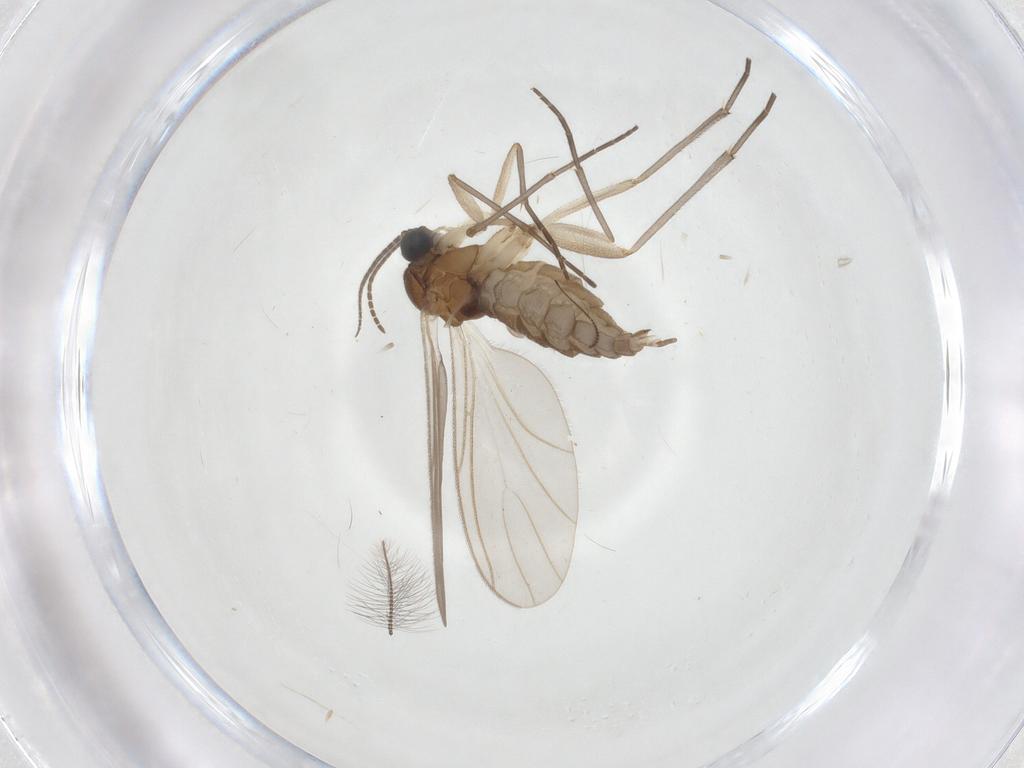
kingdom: Animalia
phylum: Arthropoda
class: Insecta
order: Diptera
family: Sciaridae
